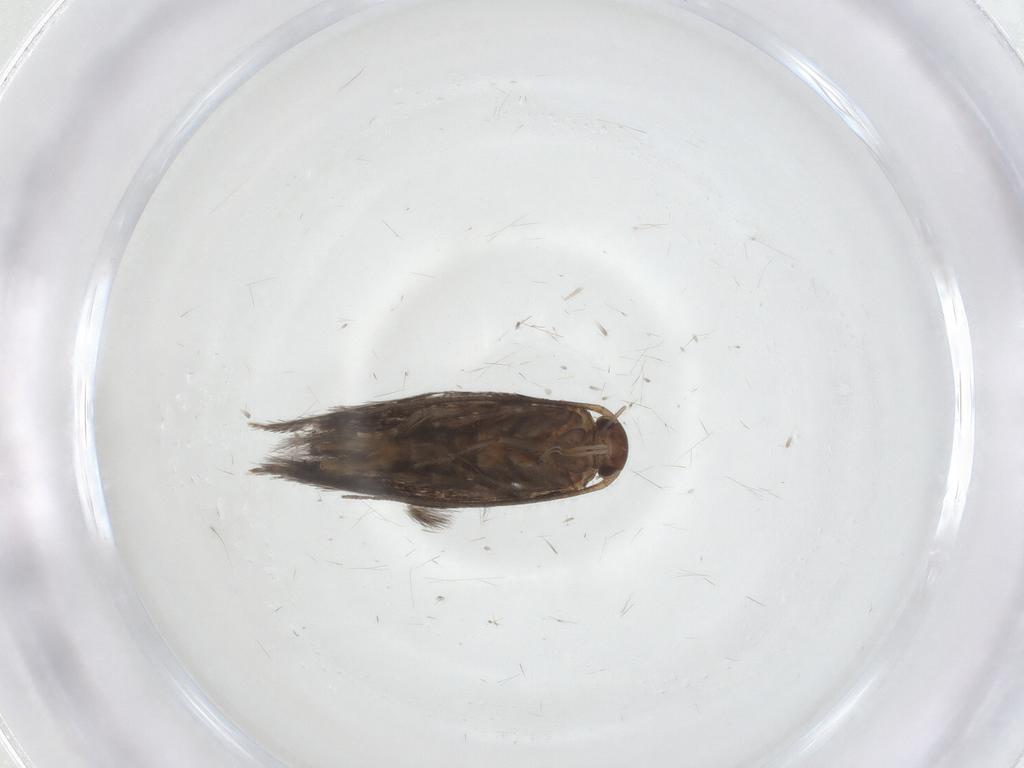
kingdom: Animalia
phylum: Arthropoda
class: Insecta
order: Lepidoptera
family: Elachistidae
